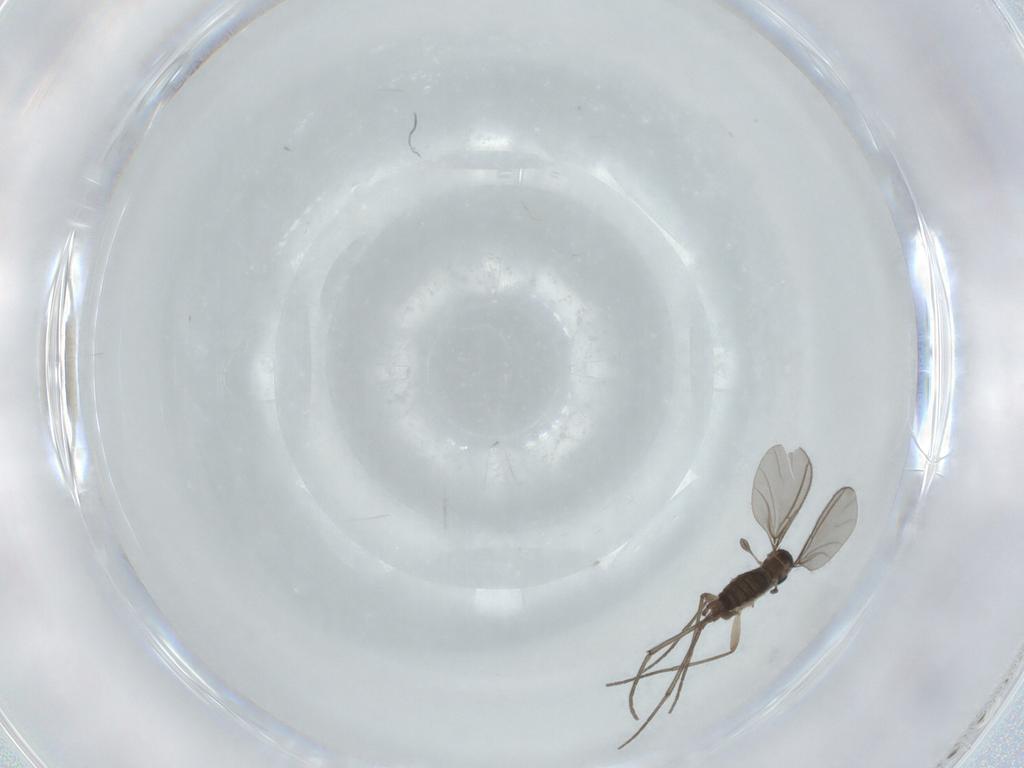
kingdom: Animalia
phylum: Arthropoda
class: Insecta
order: Diptera
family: Sciaridae
